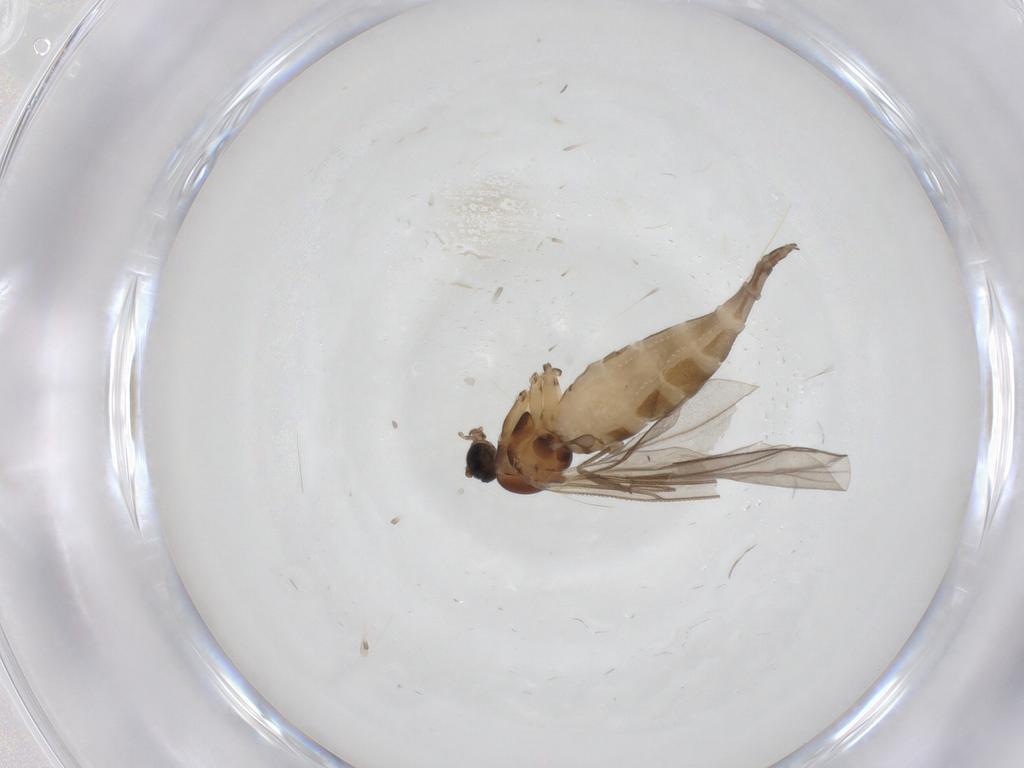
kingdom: Animalia
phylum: Arthropoda
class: Insecta
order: Diptera
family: Sciaridae
